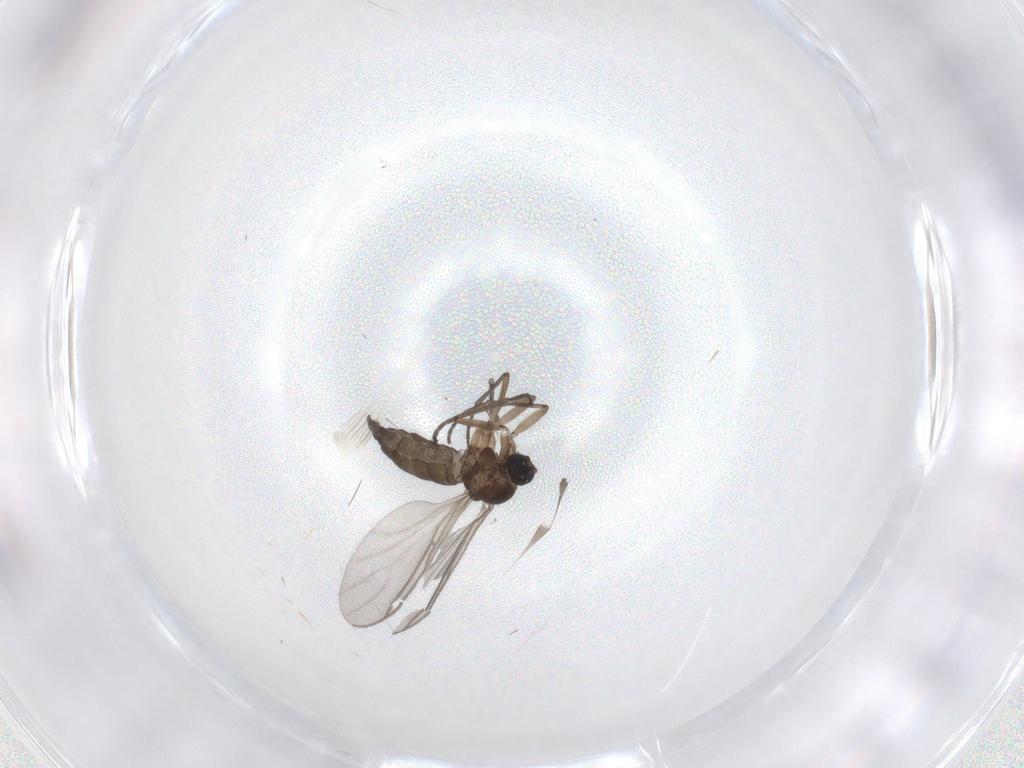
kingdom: Animalia
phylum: Arthropoda
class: Insecta
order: Diptera
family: Sciaridae
